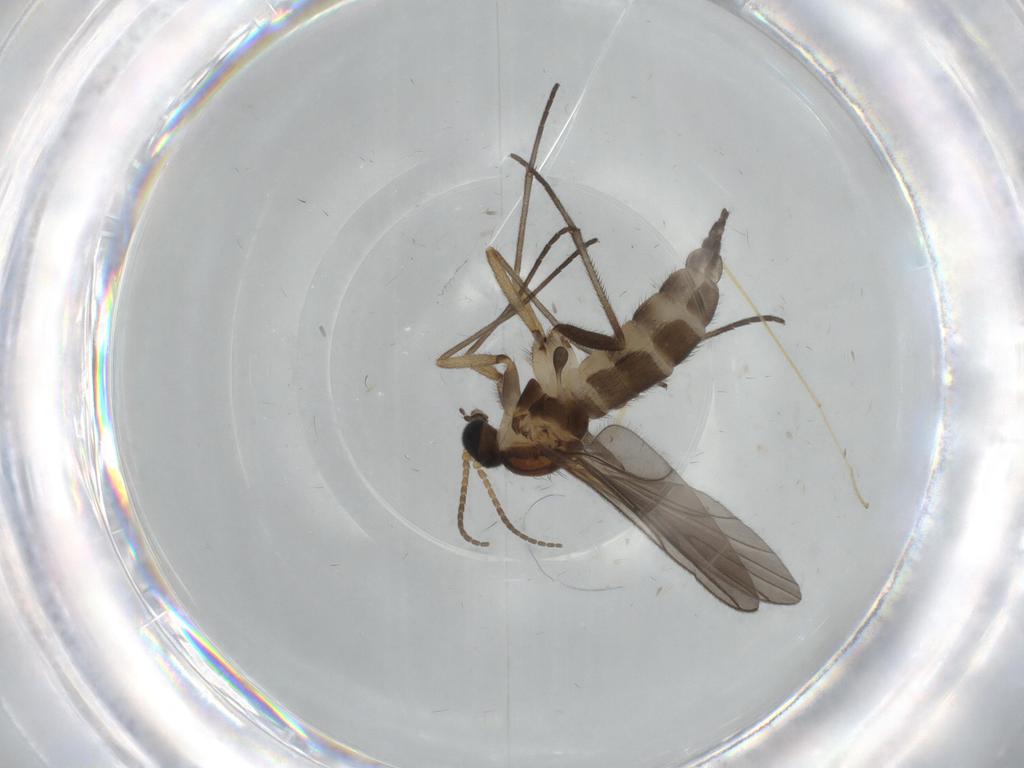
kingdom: Animalia
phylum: Arthropoda
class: Insecta
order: Diptera
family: Sciaridae
